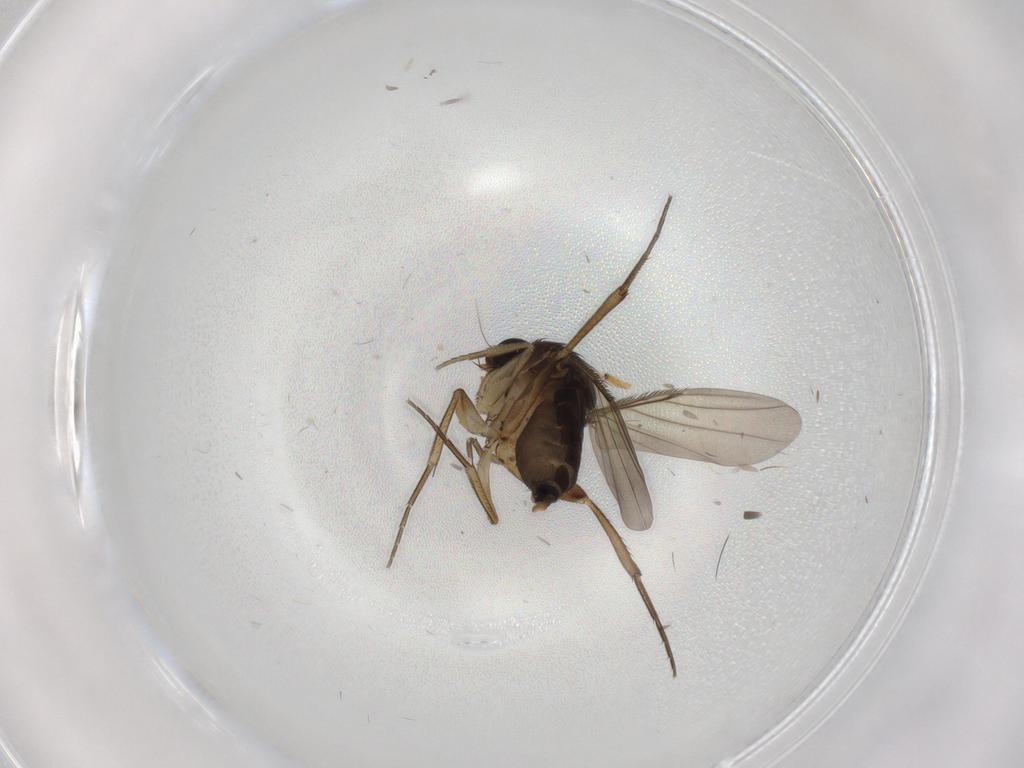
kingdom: Animalia
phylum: Arthropoda
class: Insecta
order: Diptera
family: Phoridae
